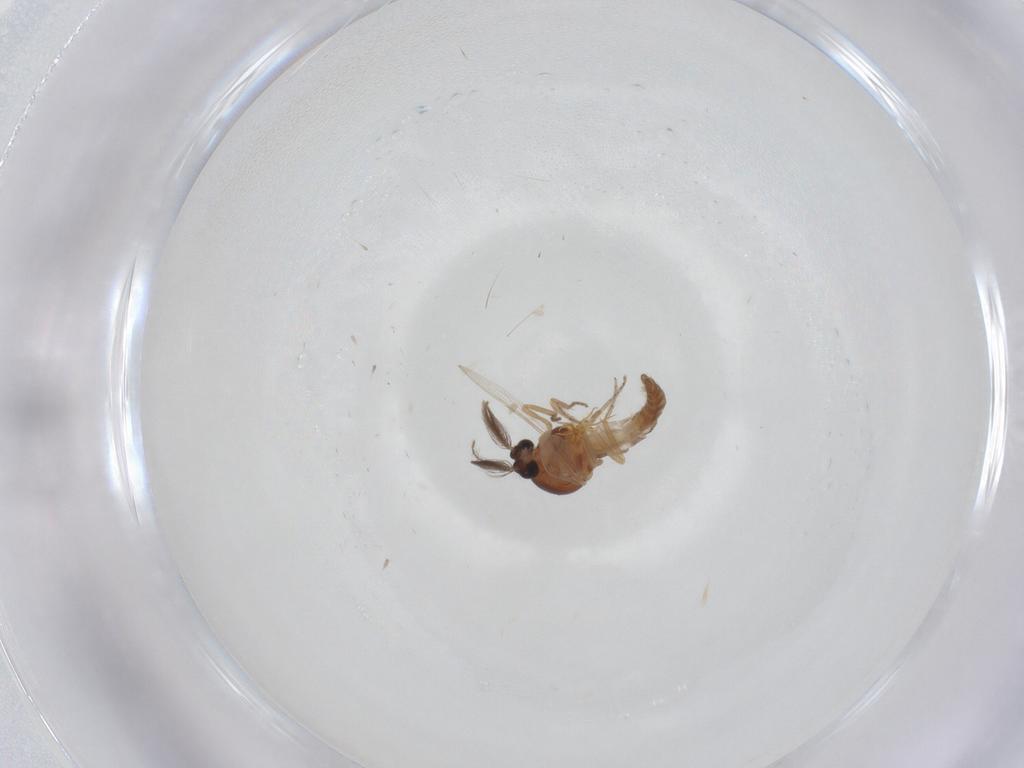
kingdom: Animalia
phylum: Arthropoda
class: Insecta
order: Diptera
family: Ceratopogonidae
